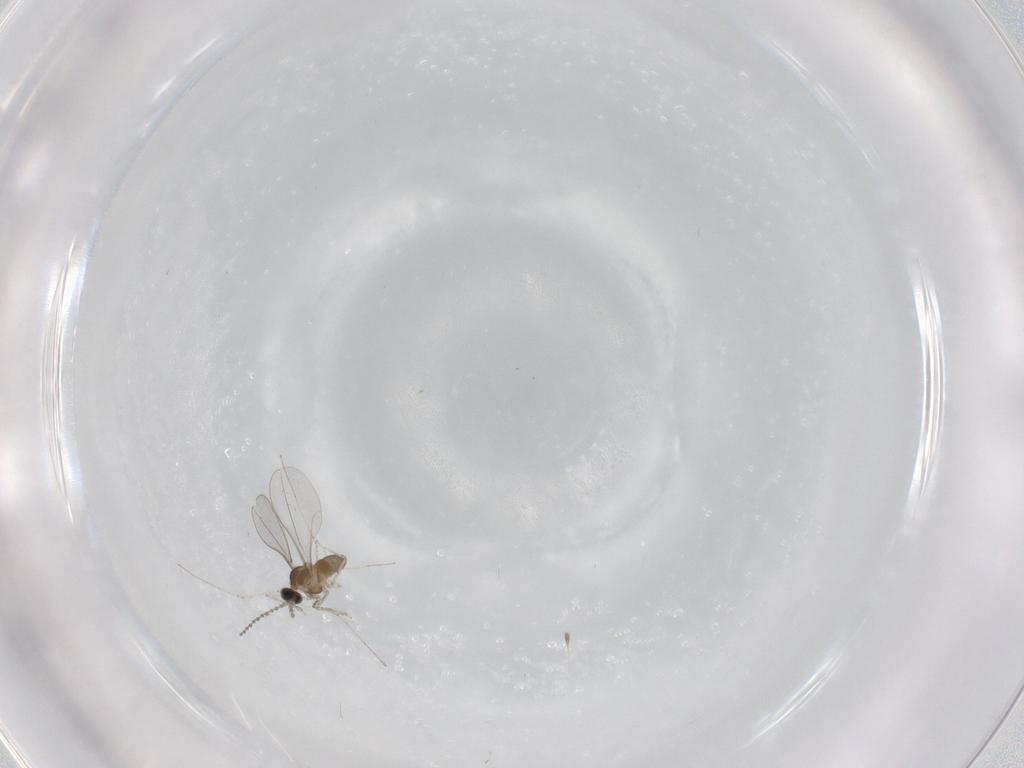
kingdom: Animalia
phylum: Arthropoda
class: Insecta
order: Diptera
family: Cecidomyiidae
